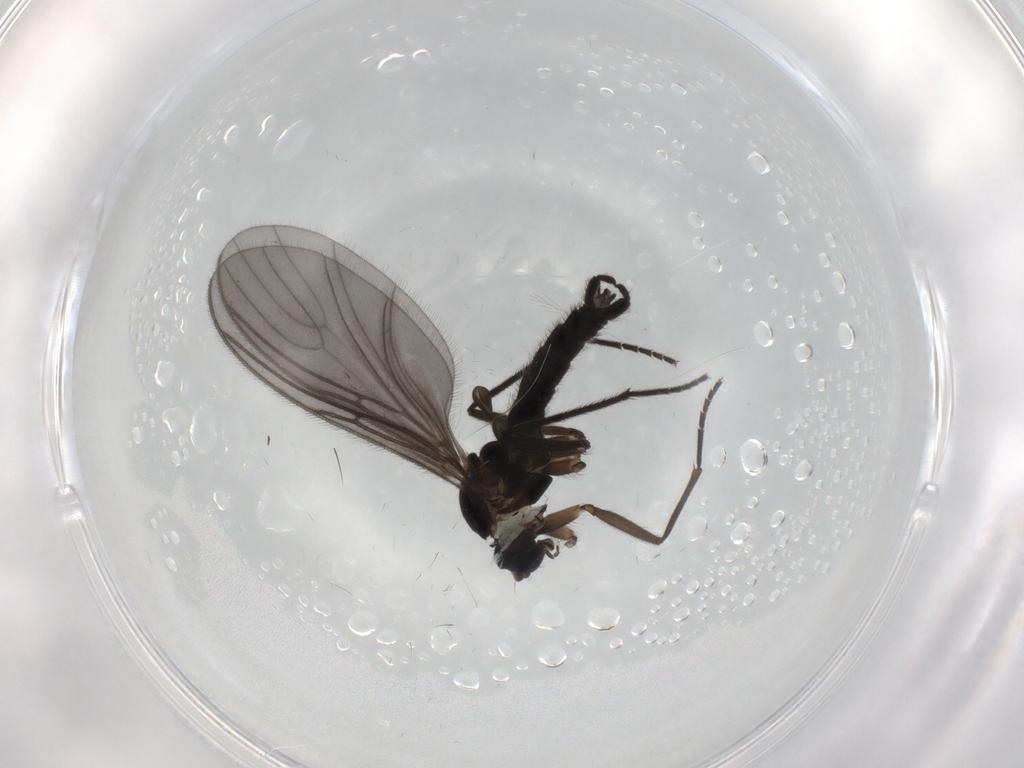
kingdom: Animalia
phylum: Arthropoda
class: Insecta
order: Diptera
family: Sciaridae
